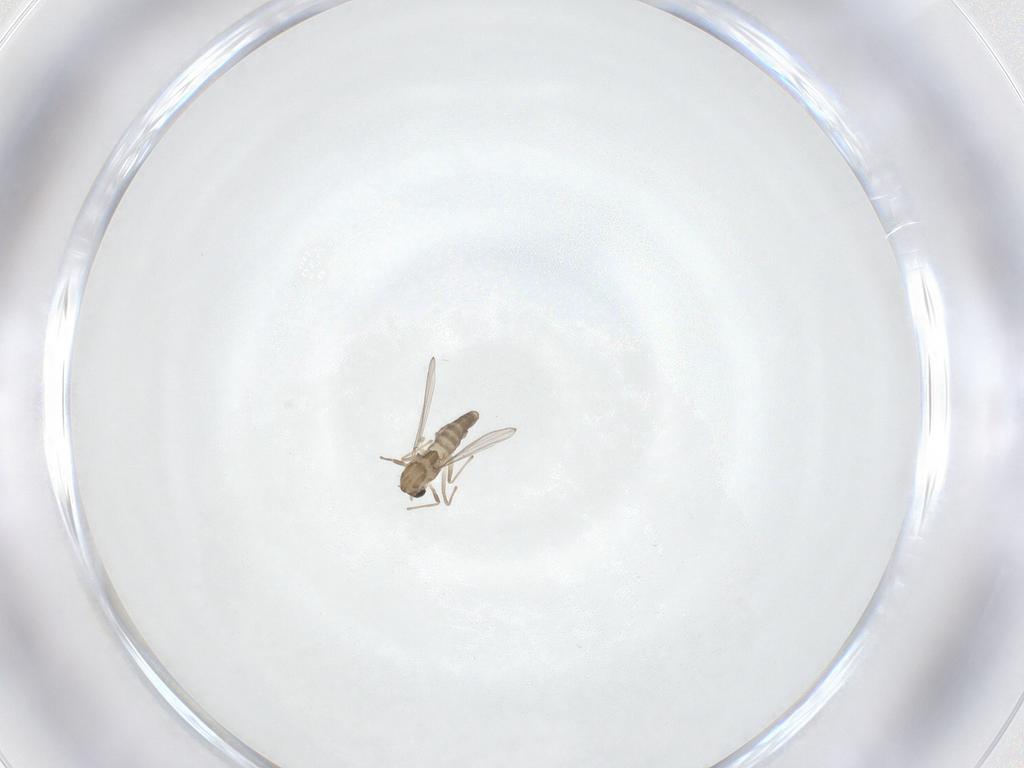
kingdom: Animalia
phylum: Arthropoda
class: Insecta
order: Diptera
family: Chironomidae
